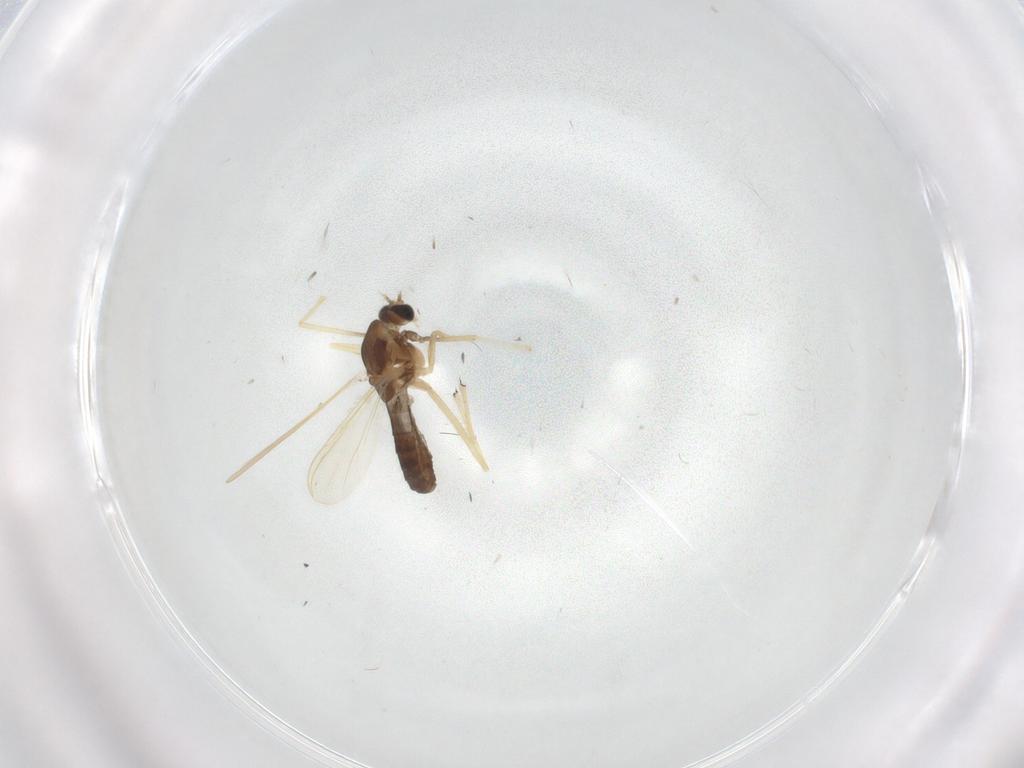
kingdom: Animalia
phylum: Arthropoda
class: Insecta
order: Diptera
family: Chironomidae
